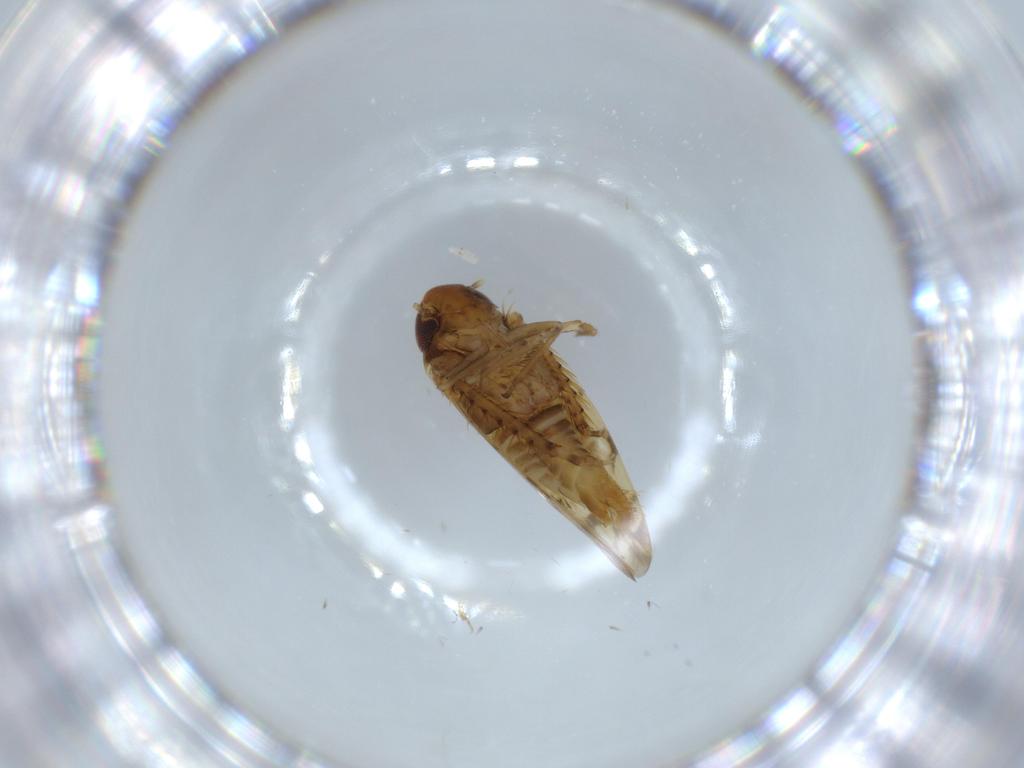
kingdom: Animalia
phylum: Arthropoda
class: Insecta
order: Hemiptera
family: Cicadellidae
